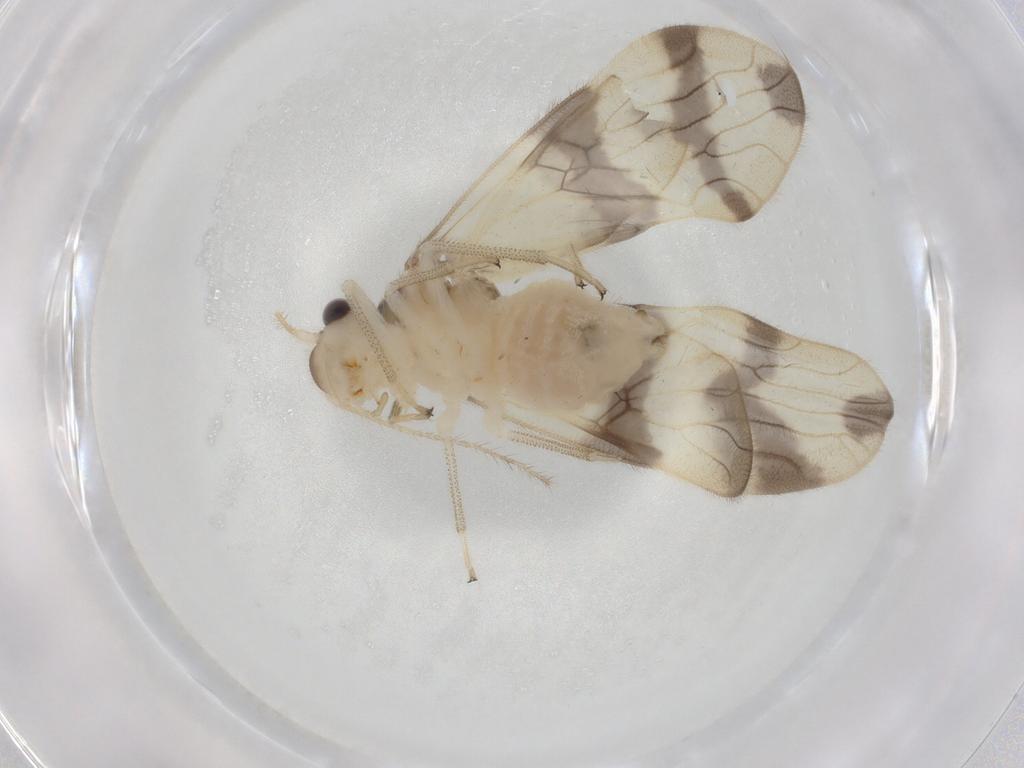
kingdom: Animalia
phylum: Arthropoda
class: Insecta
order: Psocodea
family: Amphipsocidae
